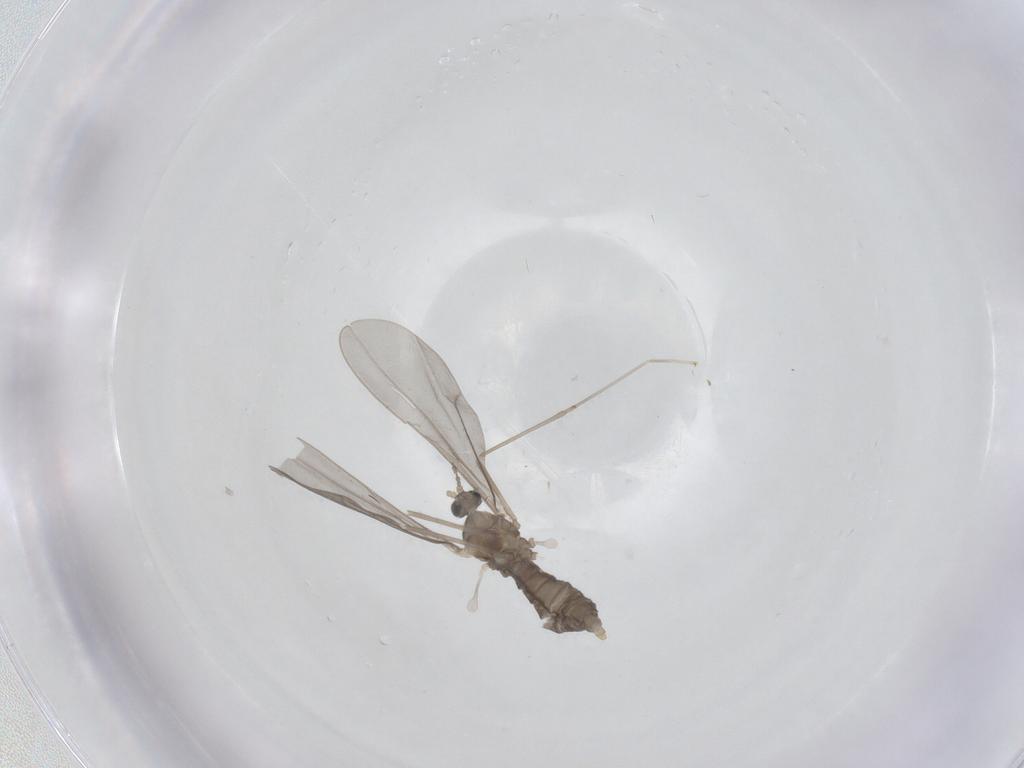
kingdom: Animalia
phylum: Arthropoda
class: Insecta
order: Diptera
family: Cecidomyiidae
